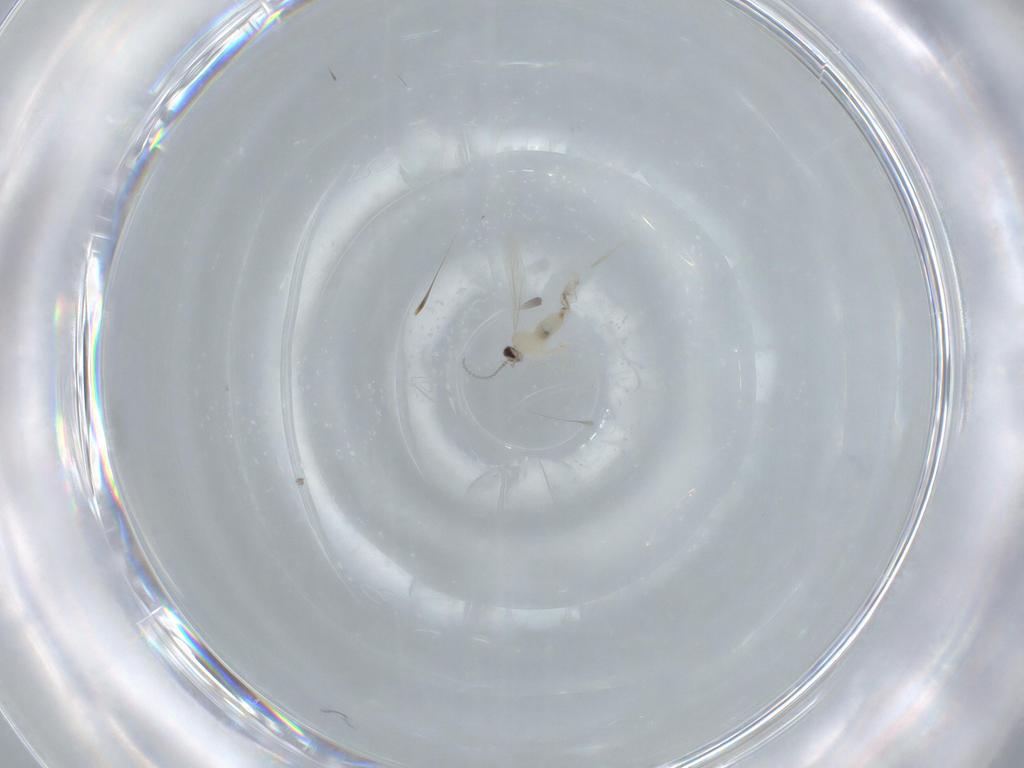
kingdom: Animalia
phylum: Arthropoda
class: Insecta
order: Diptera
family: Cecidomyiidae
